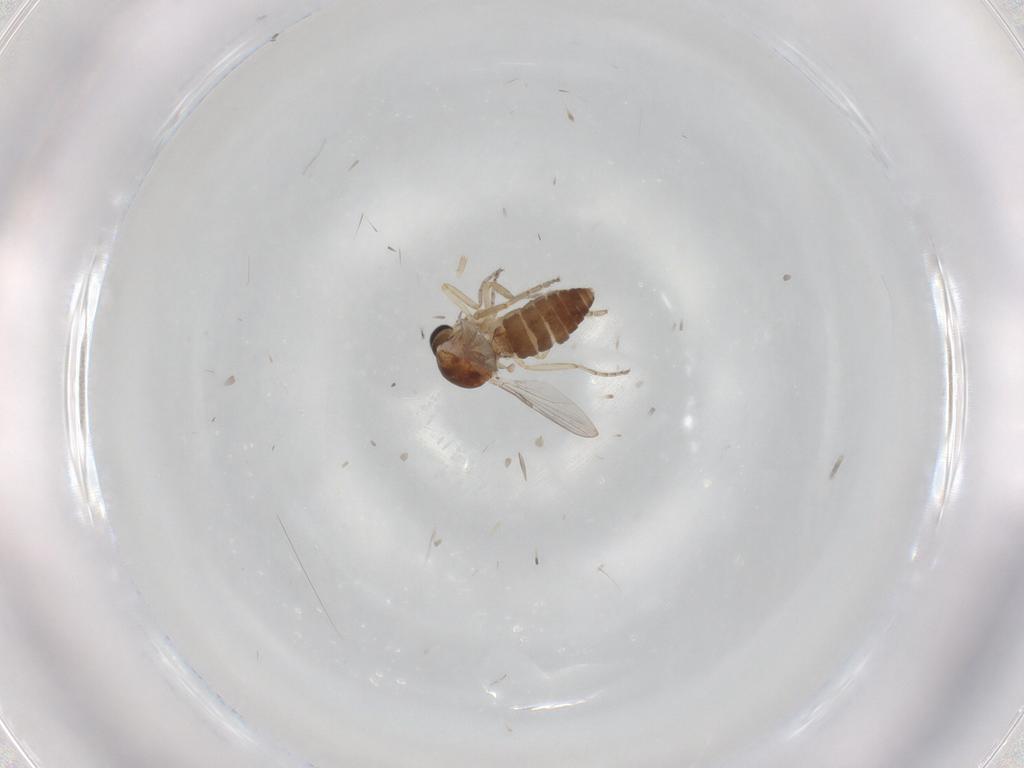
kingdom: Animalia
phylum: Arthropoda
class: Insecta
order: Diptera
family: Ceratopogonidae
